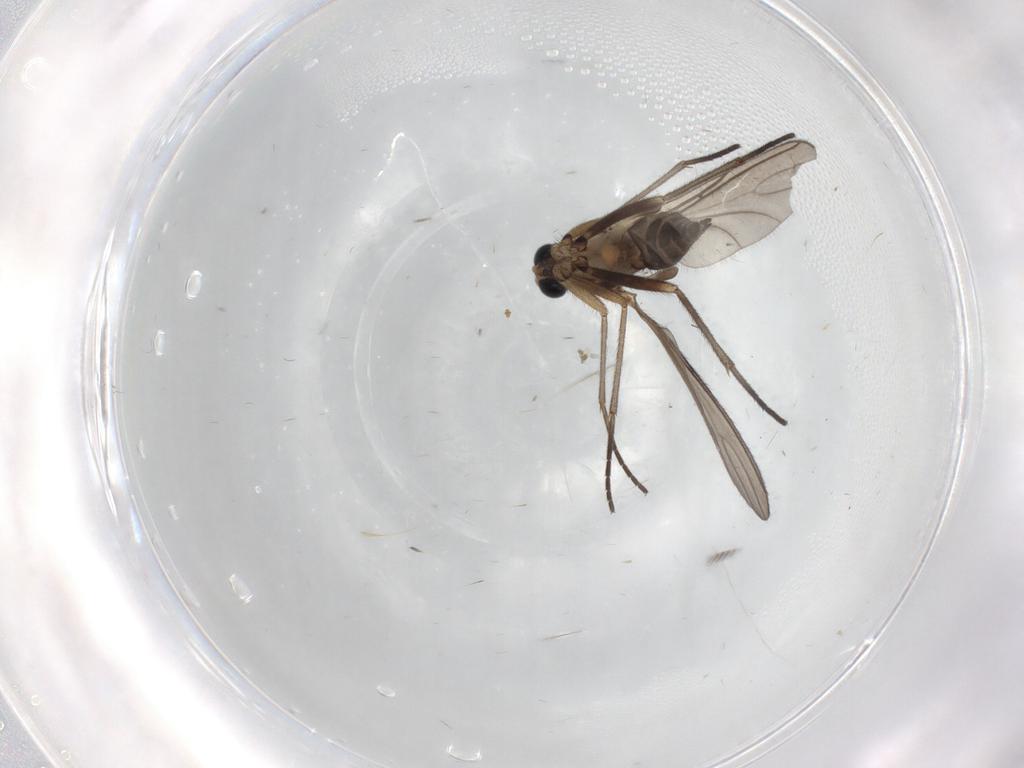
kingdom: Animalia
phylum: Arthropoda
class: Insecta
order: Diptera
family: Sciaridae
